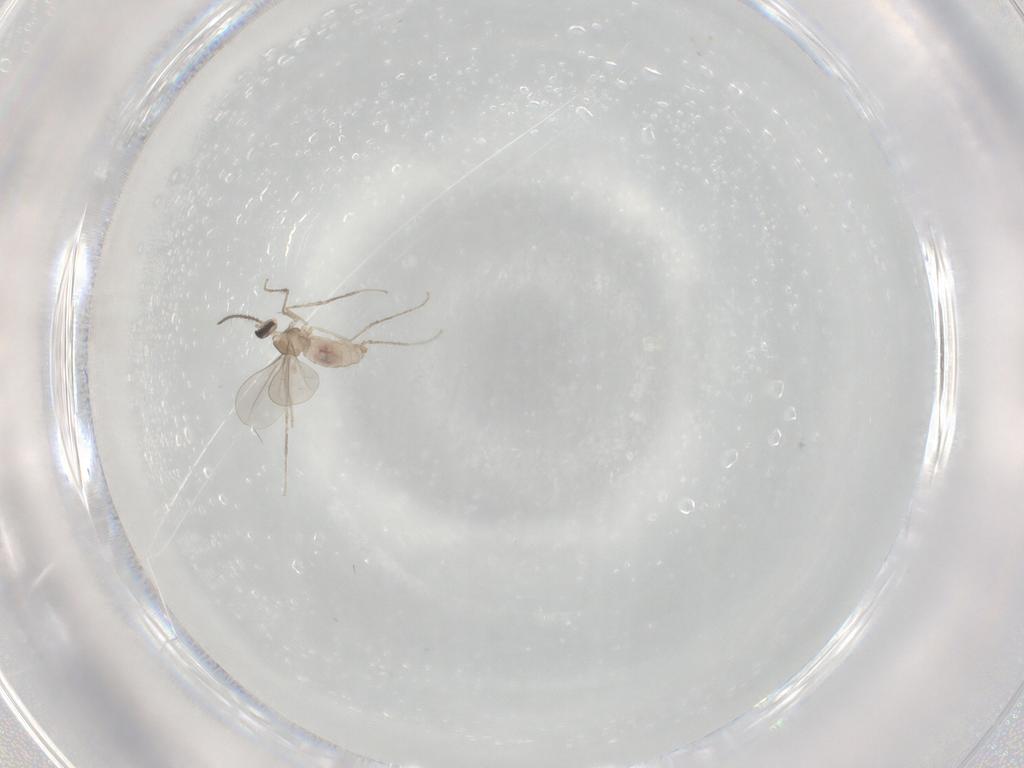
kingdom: Animalia
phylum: Arthropoda
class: Insecta
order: Diptera
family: Cecidomyiidae
